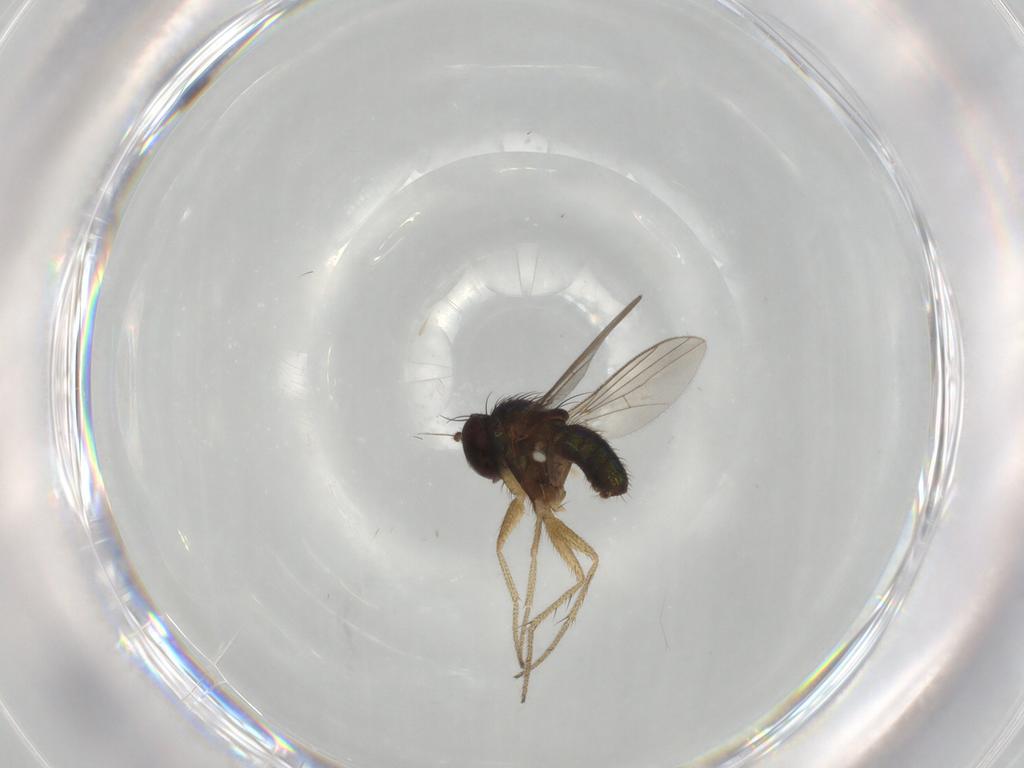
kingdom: Animalia
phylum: Arthropoda
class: Insecta
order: Diptera
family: Dolichopodidae
